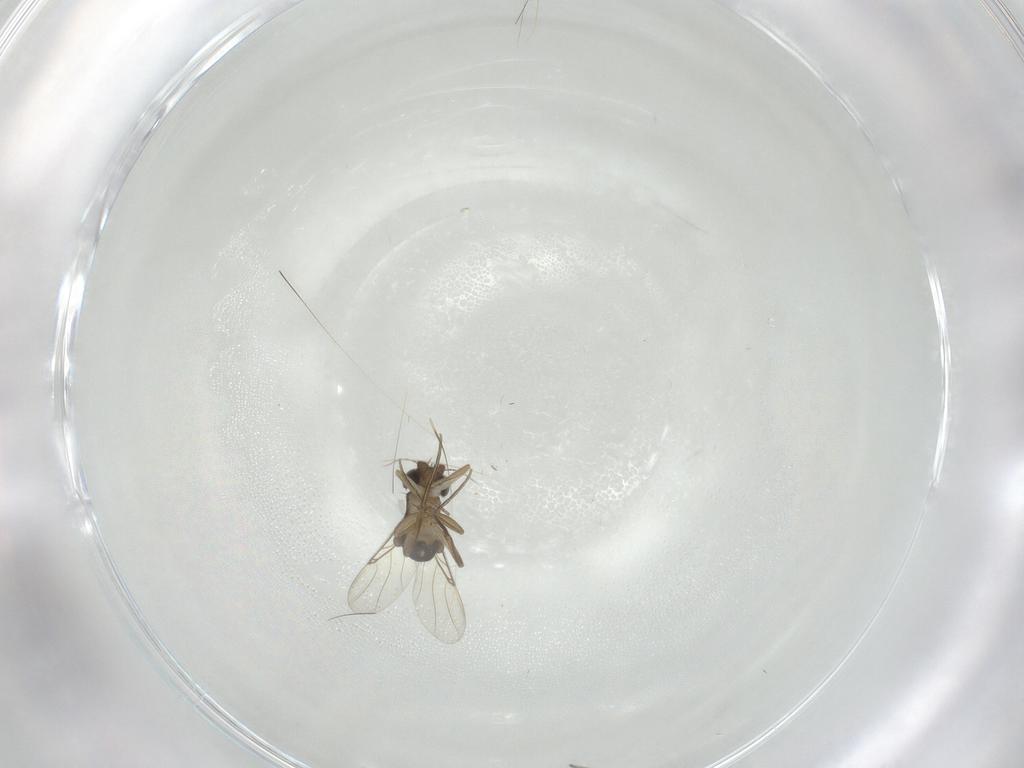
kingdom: Animalia
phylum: Arthropoda
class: Insecta
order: Diptera
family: Phoridae
